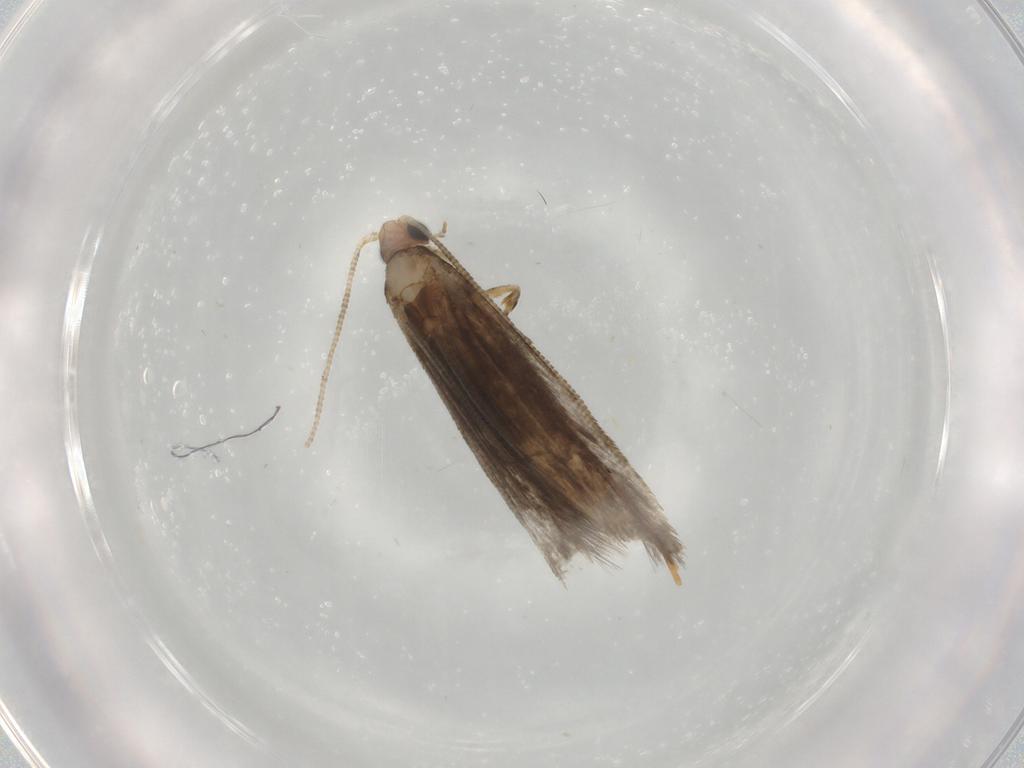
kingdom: Animalia
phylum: Arthropoda
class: Insecta
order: Lepidoptera
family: Tineidae
